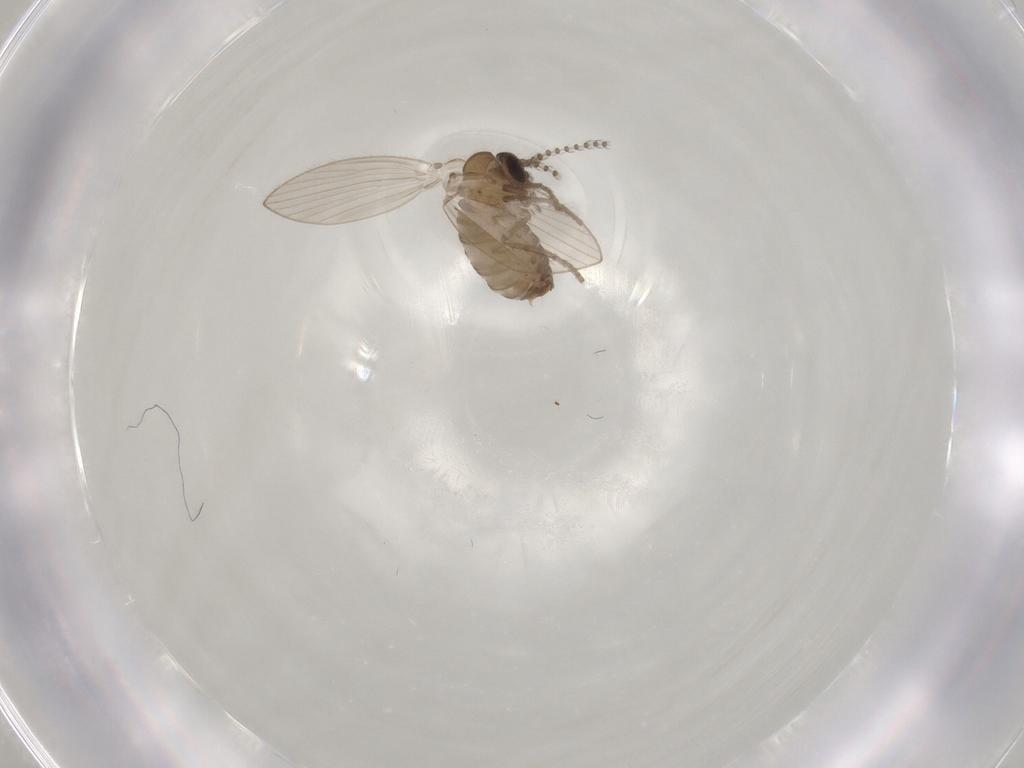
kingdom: Animalia
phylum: Arthropoda
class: Insecta
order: Diptera
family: Psychodidae
